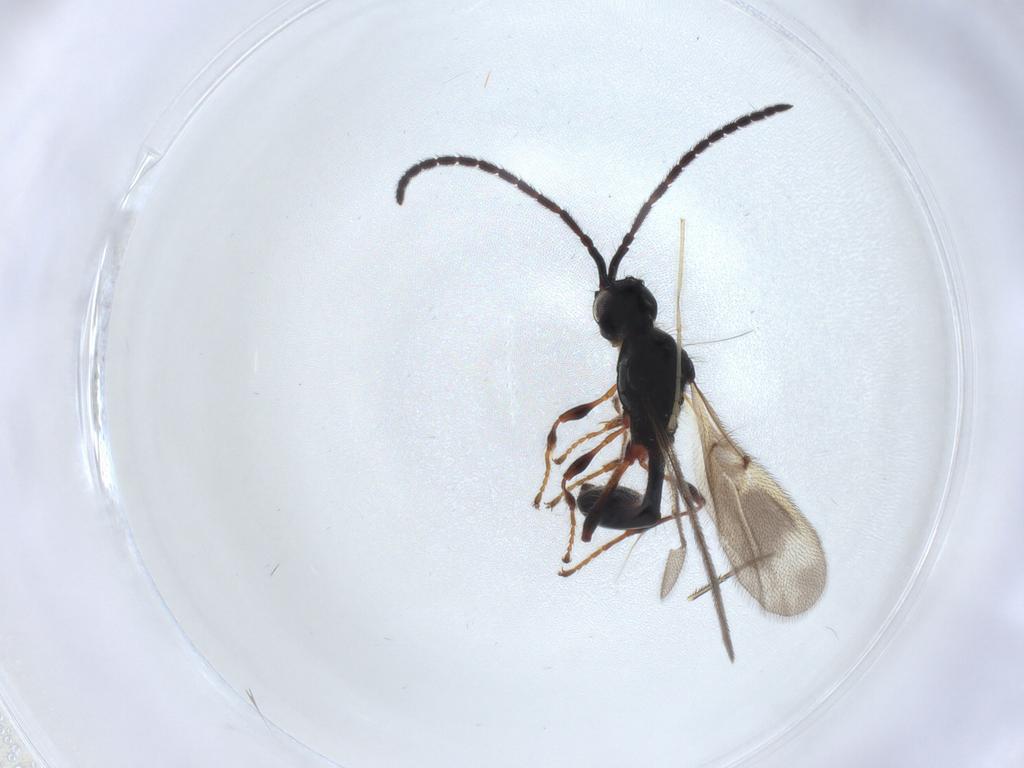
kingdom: Animalia
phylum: Arthropoda
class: Insecta
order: Hymenoptera
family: Diapriidae
